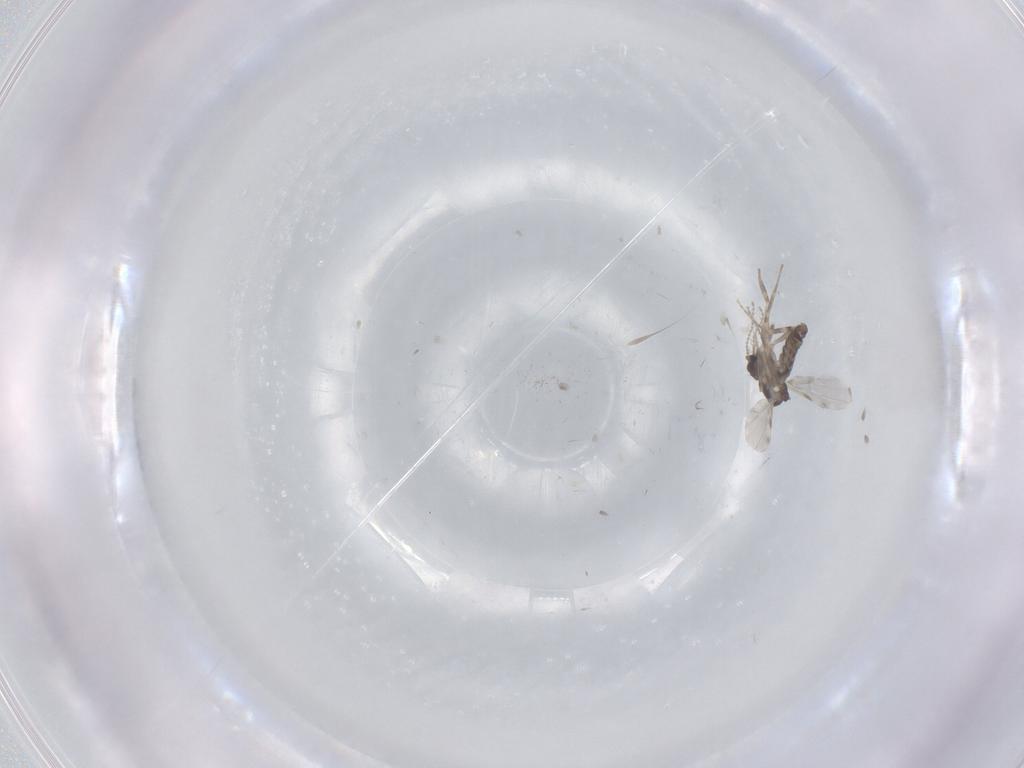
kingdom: Animalia
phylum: Arthropoda
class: Insecta
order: Diptera
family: Ceratopogonidae
